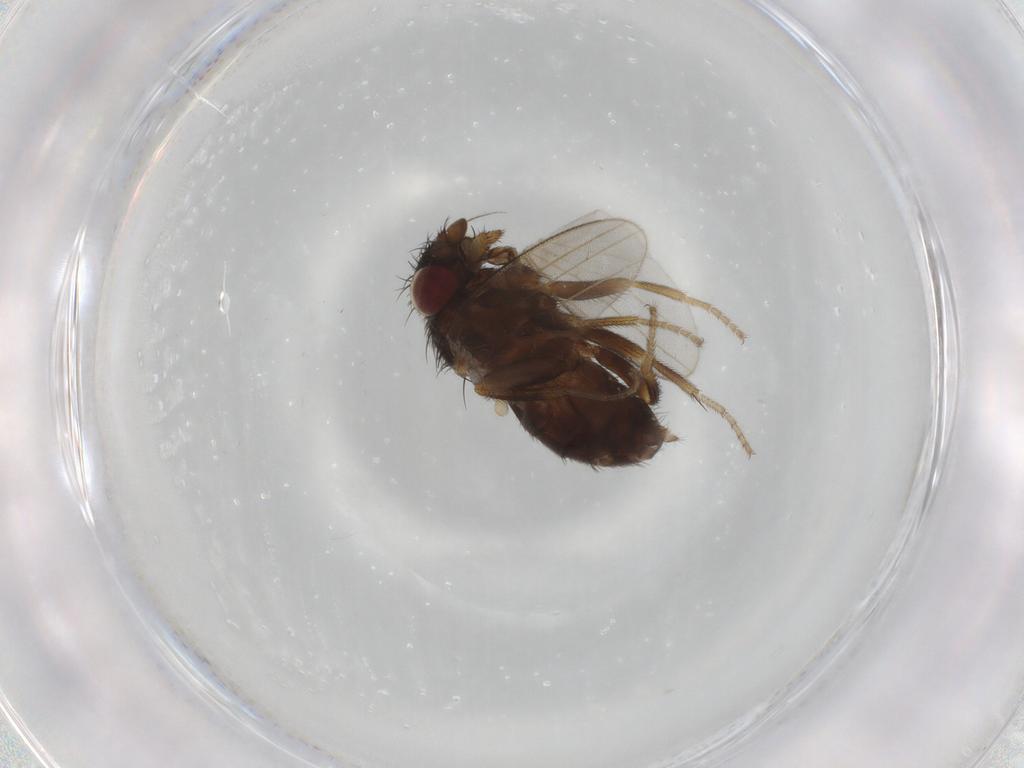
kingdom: Animalia
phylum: Arthropoda
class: Insecta
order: Diptera
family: Milichiidae
